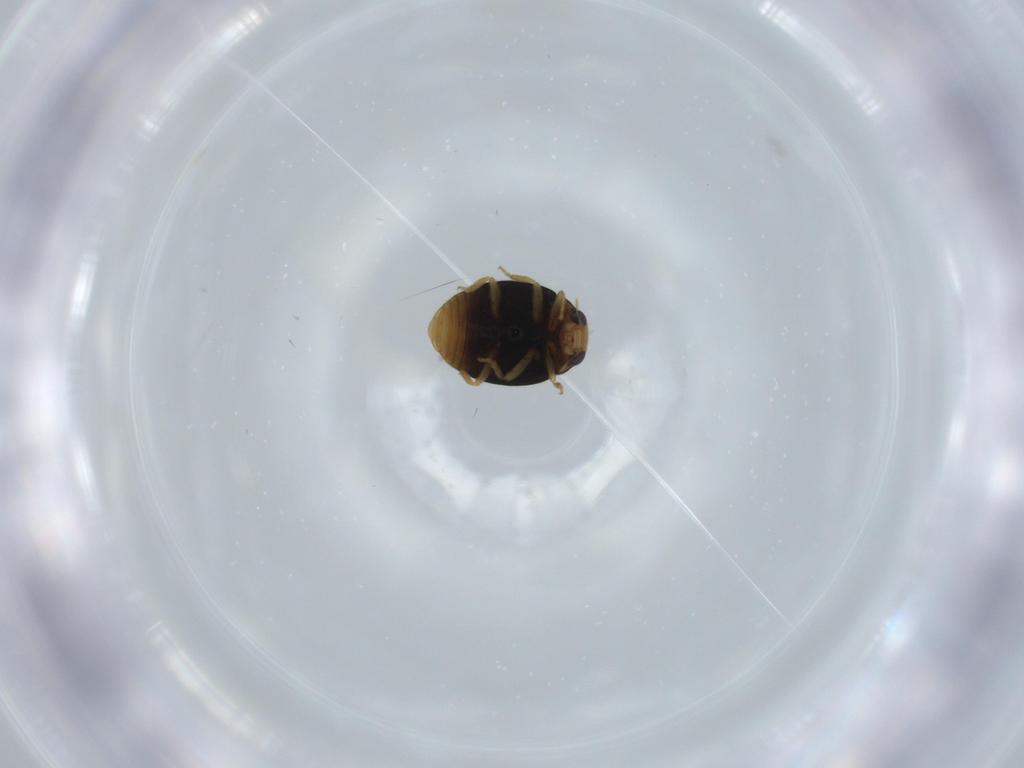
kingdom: Animalia
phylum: Arthropoda
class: Insecta
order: Coleoptera
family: Coccinellidae
